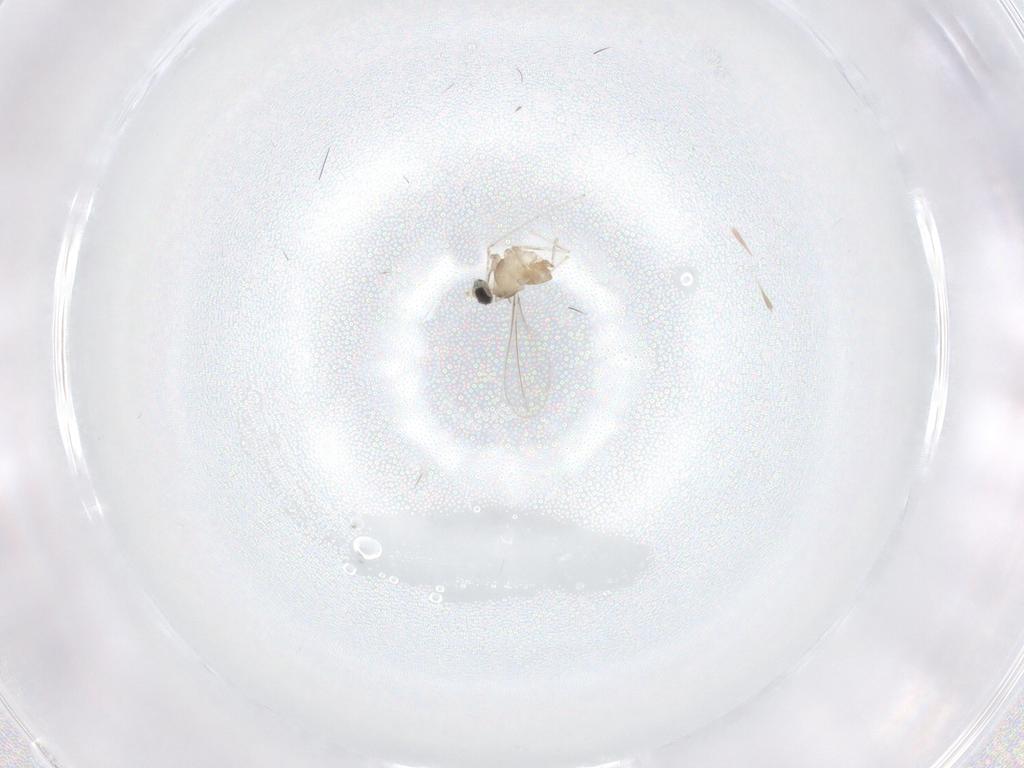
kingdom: Animalia
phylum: Arthropoda
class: Insecta
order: Diptera
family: Cecidomyiidae
